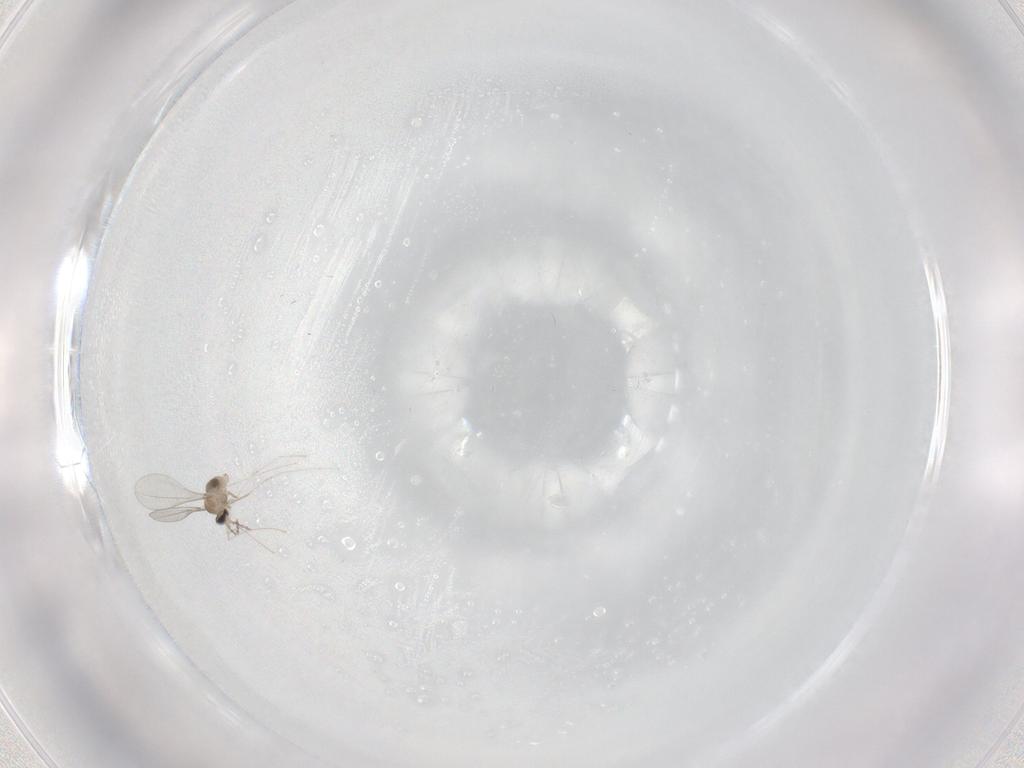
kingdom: Animalia
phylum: Arthropoda
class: Insecta
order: Diptera
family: Cecidomyiidae
